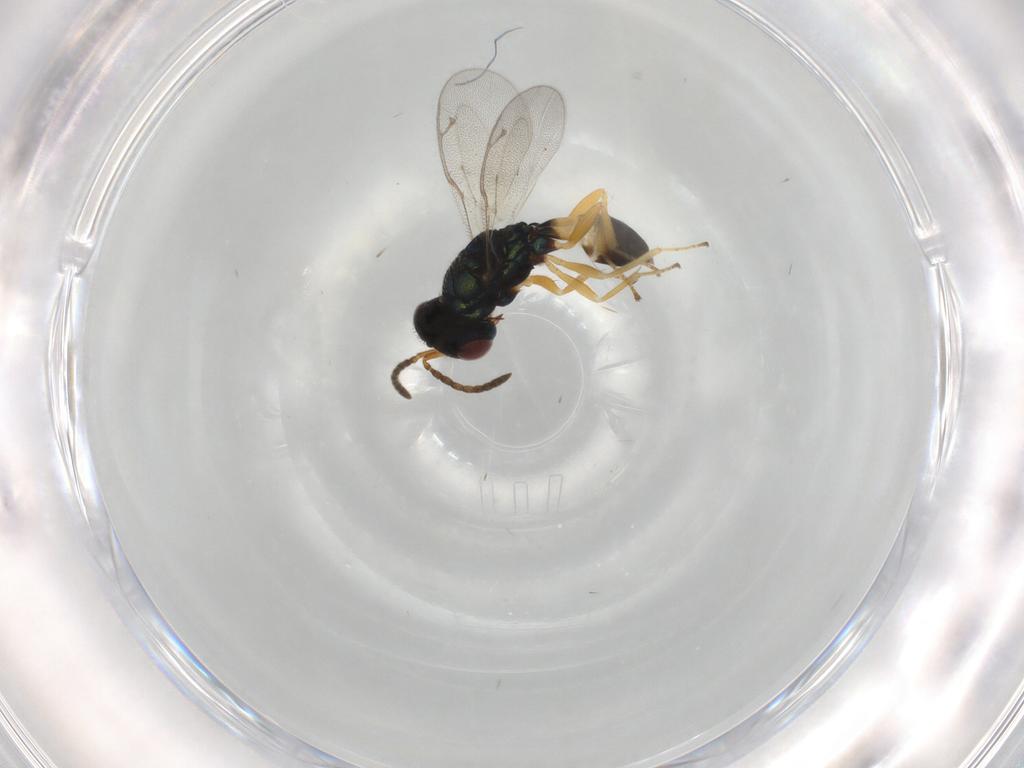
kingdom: Animalia
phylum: Arthropoda
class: Insecta
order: Hymenoptera
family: Pteromalidae
